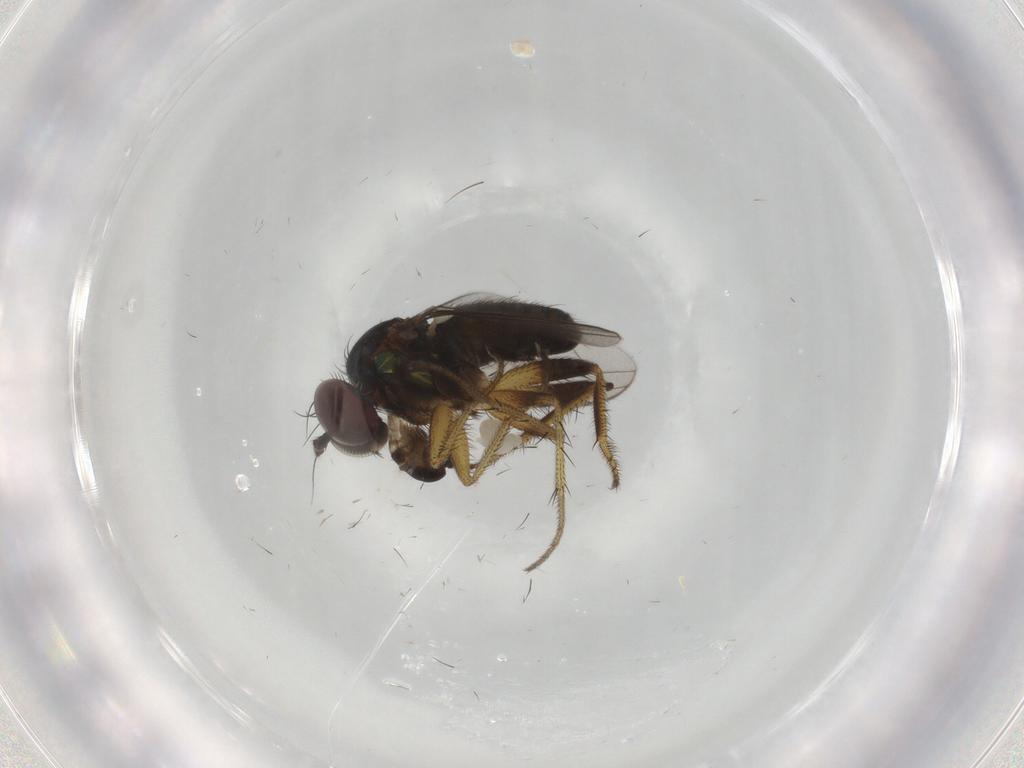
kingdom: Animalia
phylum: Arthropoda
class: Insecta
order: Diptera
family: Dolichopodidae
